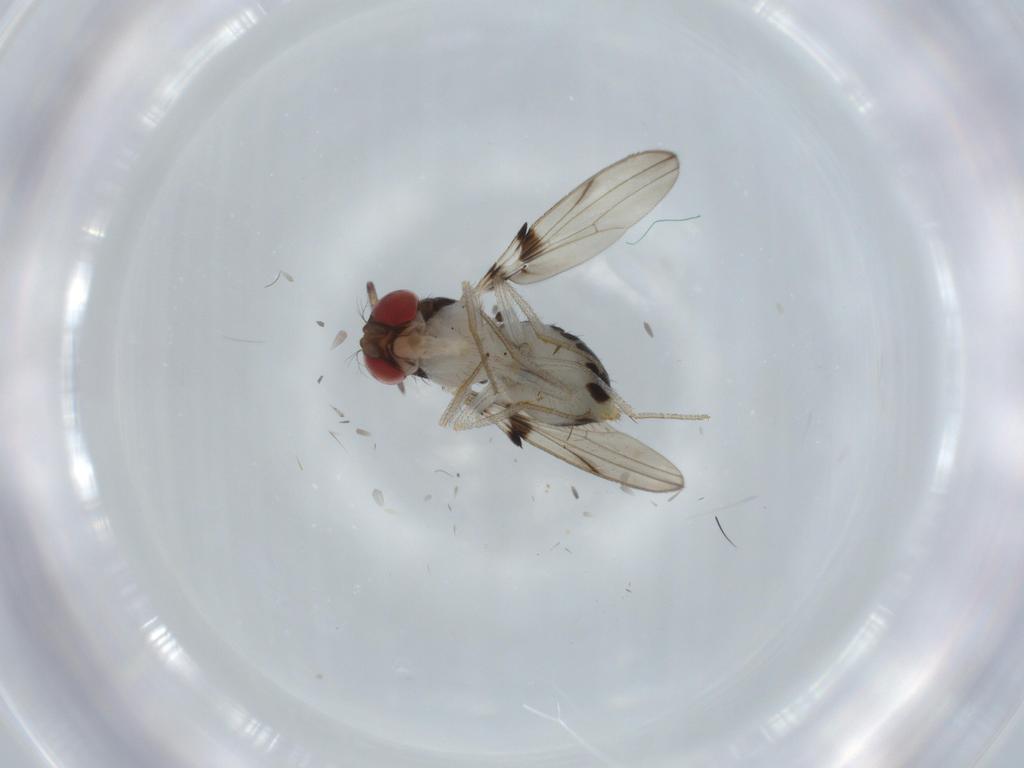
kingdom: Animalia
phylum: Arthropoda
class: Insecta
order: Diptera
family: Drosophilidae
